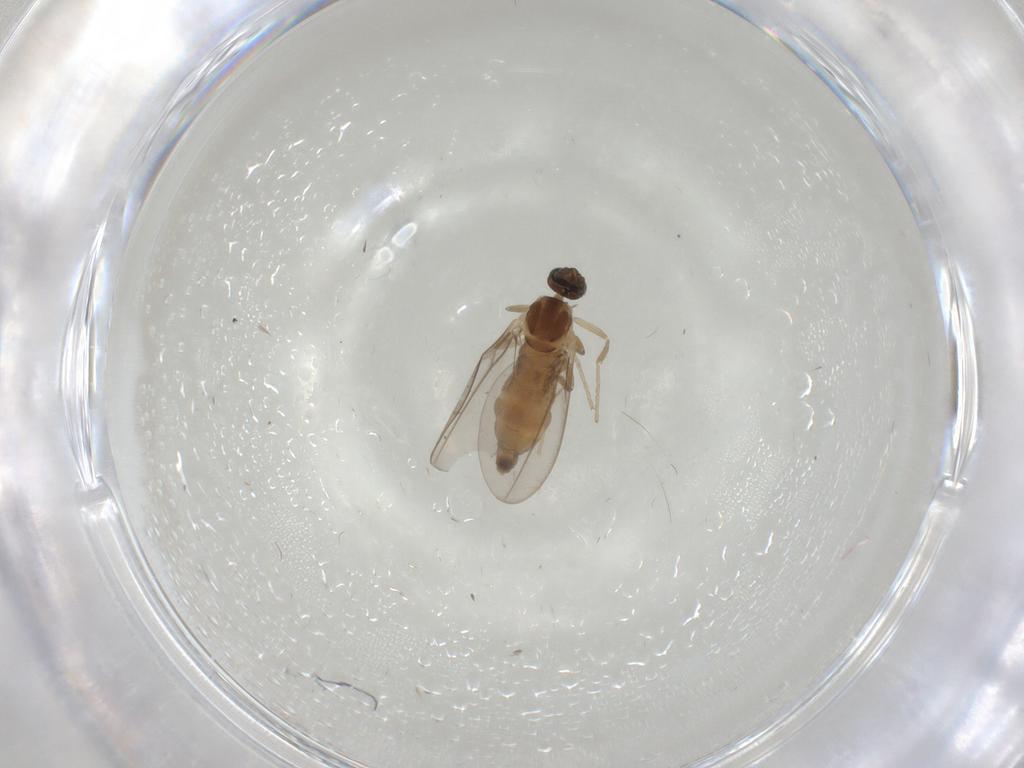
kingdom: Animalia
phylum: Arthropoda
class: Insecta
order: Diptera
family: Cecidomyiidae
